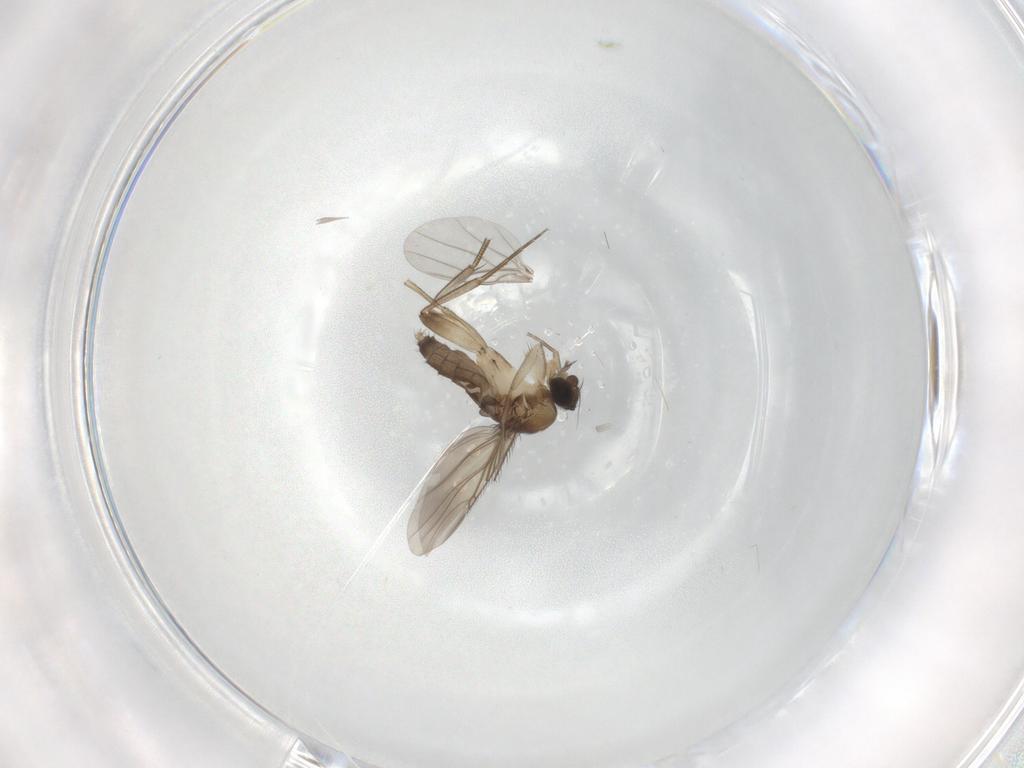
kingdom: Animalia
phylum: Arthropoda
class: Insecta
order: Diptera
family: Phoridae
